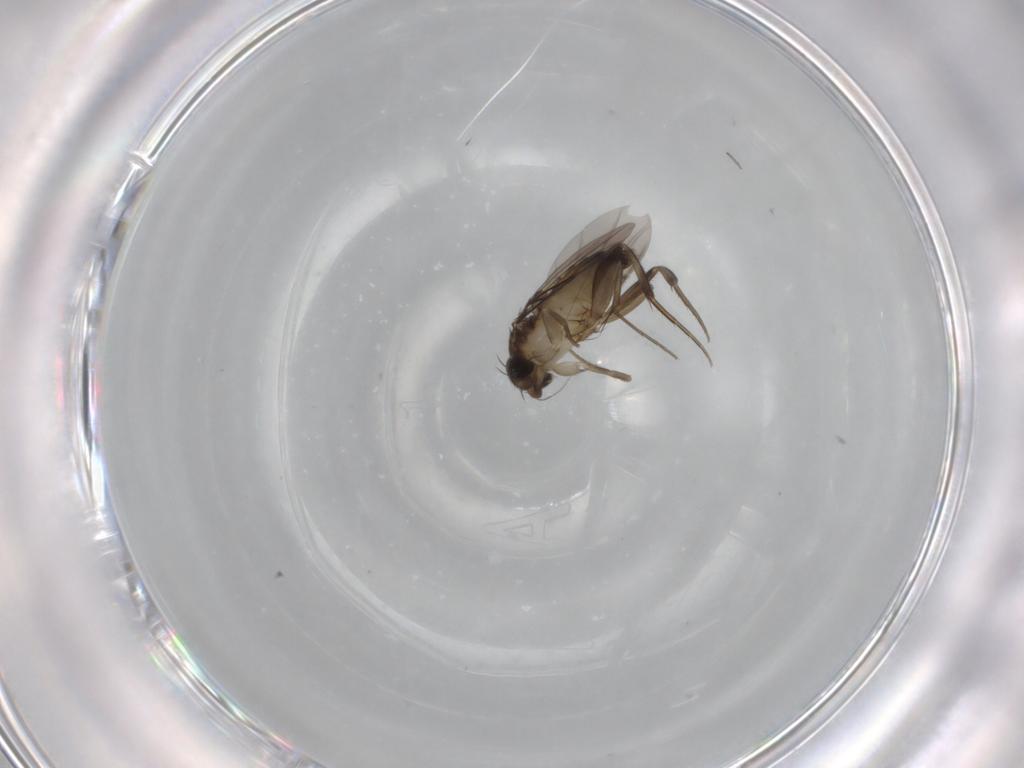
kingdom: Animalia
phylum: Arthropoda
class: Insecta
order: Diptera
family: Phoridae
